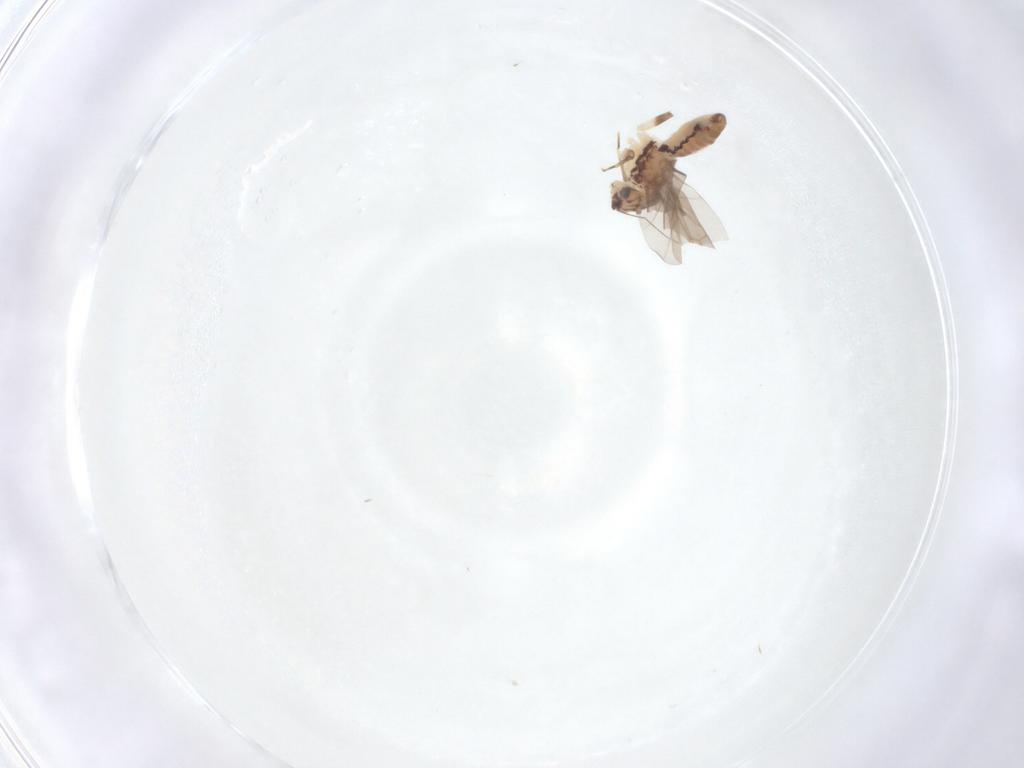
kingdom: Animalia
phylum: Arthropoda
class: Insecta
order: Psocodea
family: Lepidopsocidae
